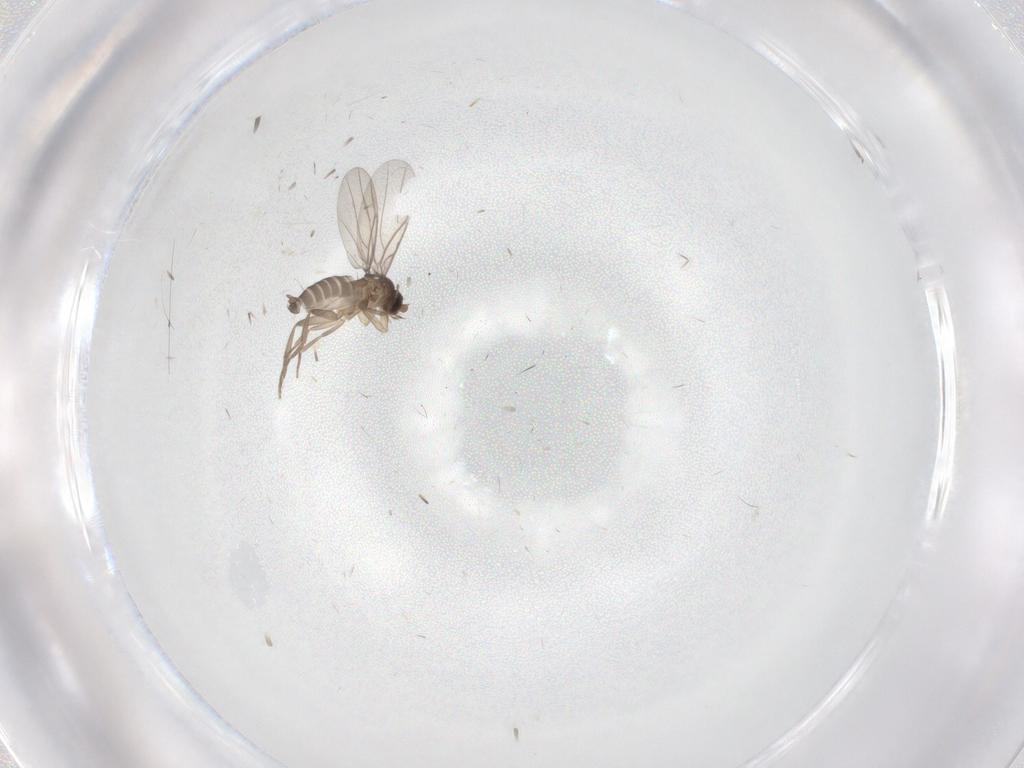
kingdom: Animalia
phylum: Arthropoda
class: Insecta
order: Diptera
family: Phoridae
